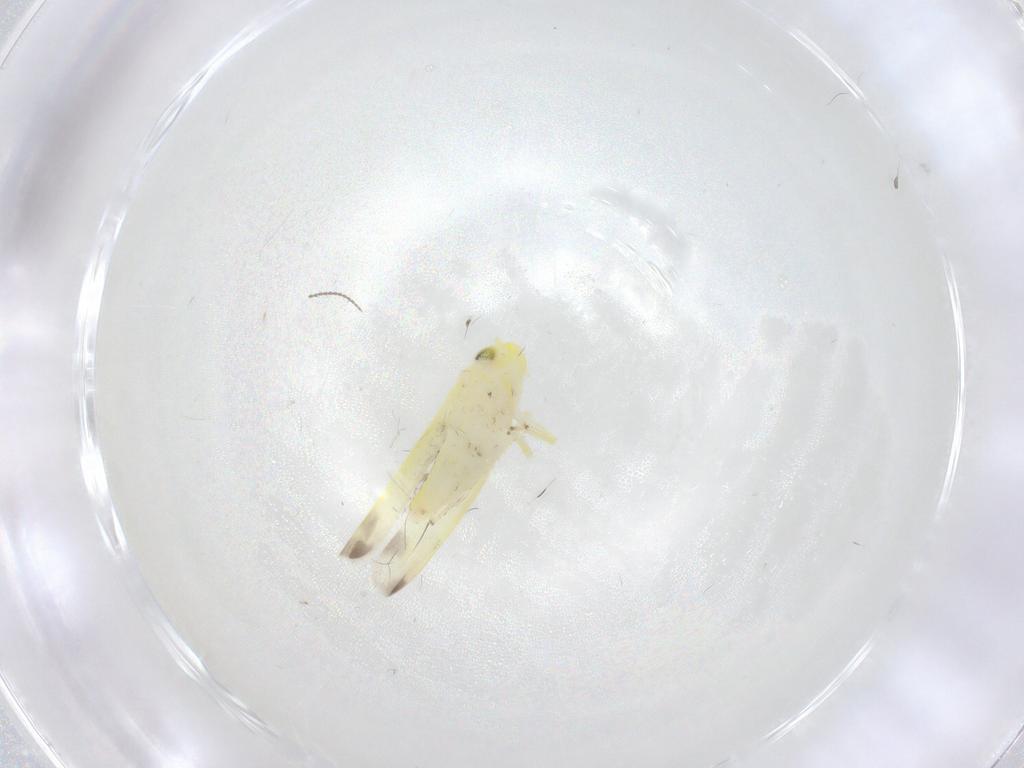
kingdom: Animalia
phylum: Arthropoda
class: Insecta
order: Hemiptera
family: Cicadellidae
